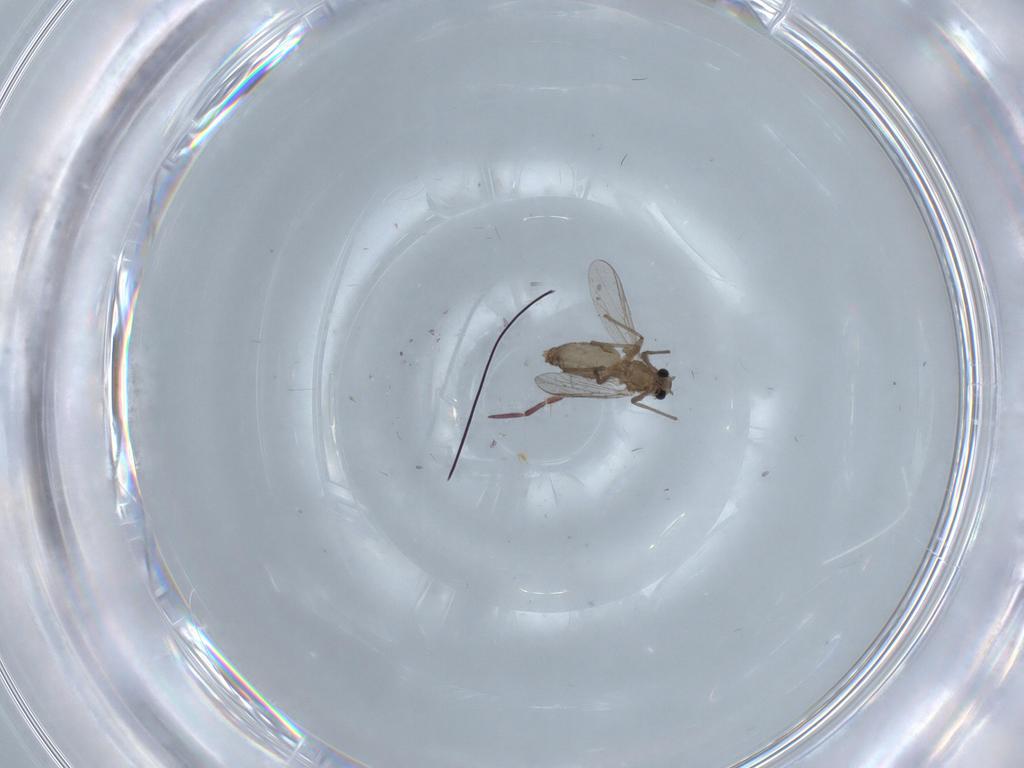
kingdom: Animalia
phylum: Arthropoda
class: Insecta
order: Diptera
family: Chironomidae
